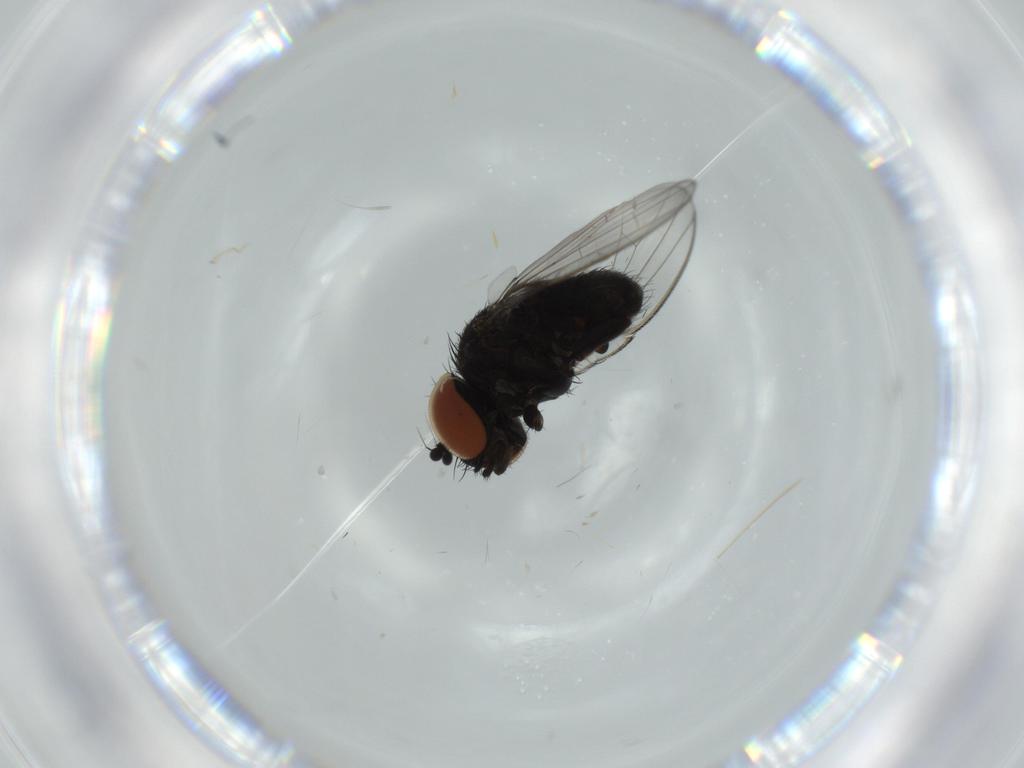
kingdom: Animalia
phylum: Arthropoda
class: Insecta
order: Diptera
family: Milichiidae
